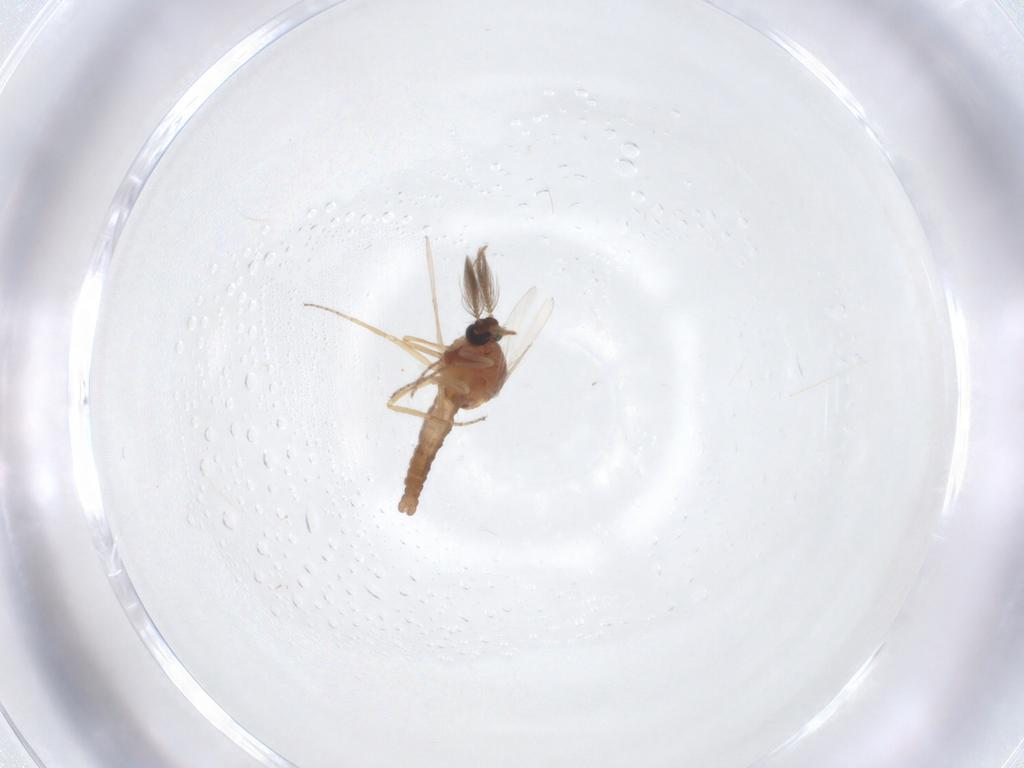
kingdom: Animalia
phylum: Arthropoda
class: Insecta
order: Diptera
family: Ceratopogonidae
